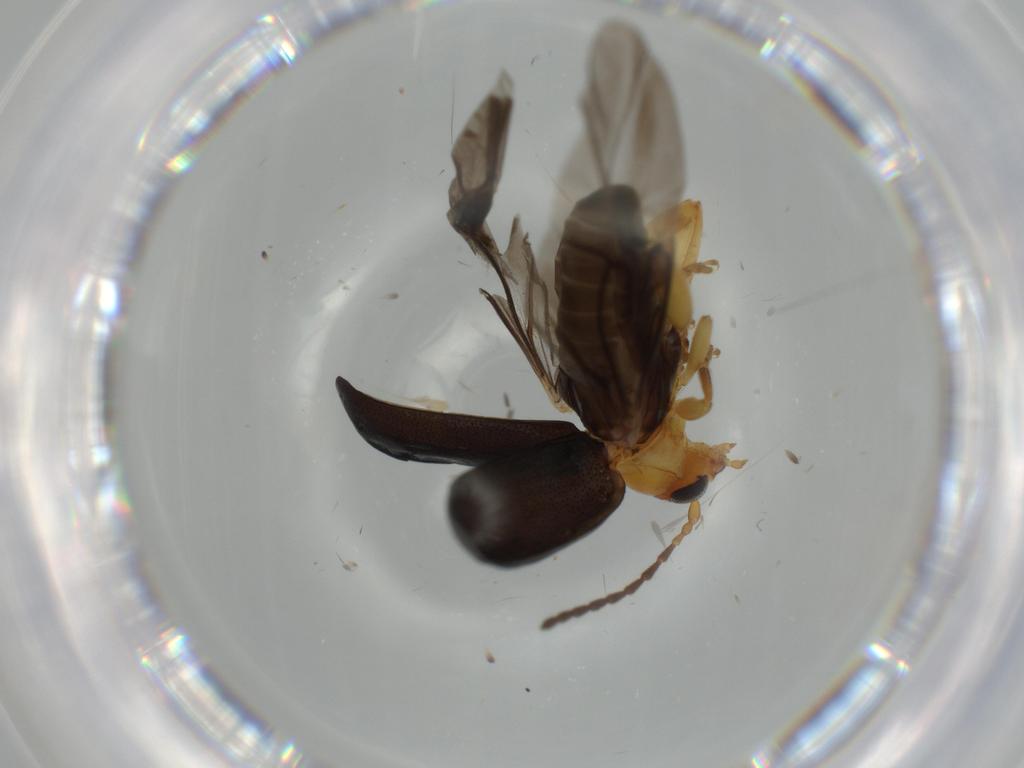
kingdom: Animalia
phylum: Arthropoda
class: Insecta
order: Coleoptera
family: Chrysomelidae
